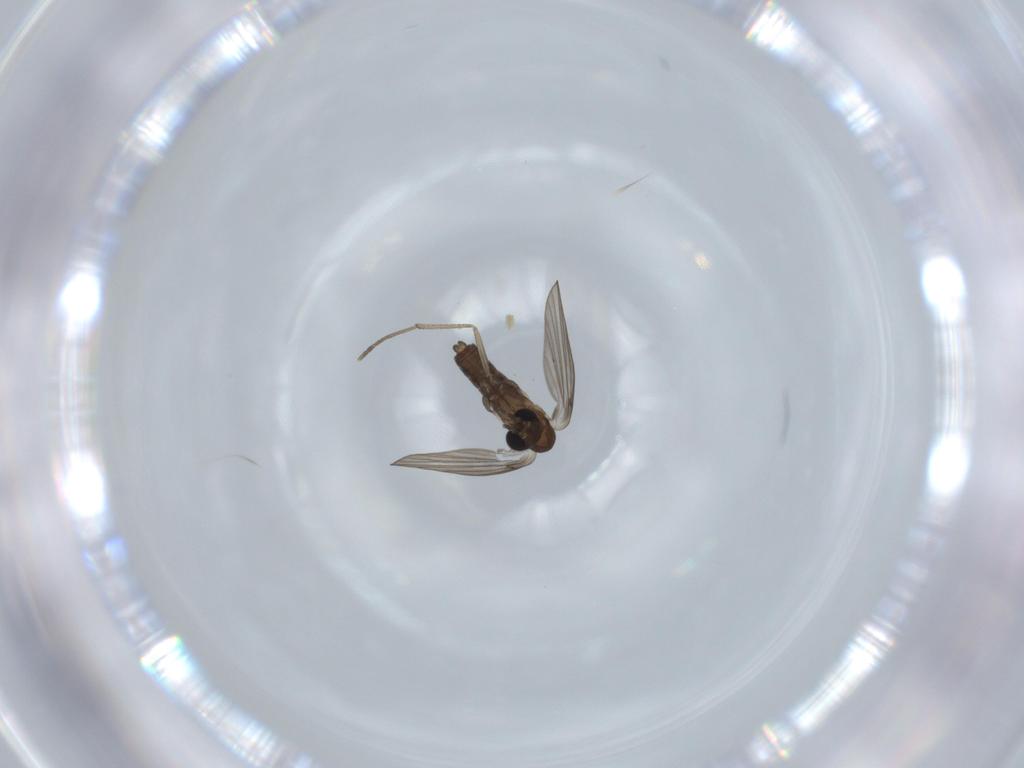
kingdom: Animalia
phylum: Arthropoda
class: Insecta
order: Diptera
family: Psychodidae
